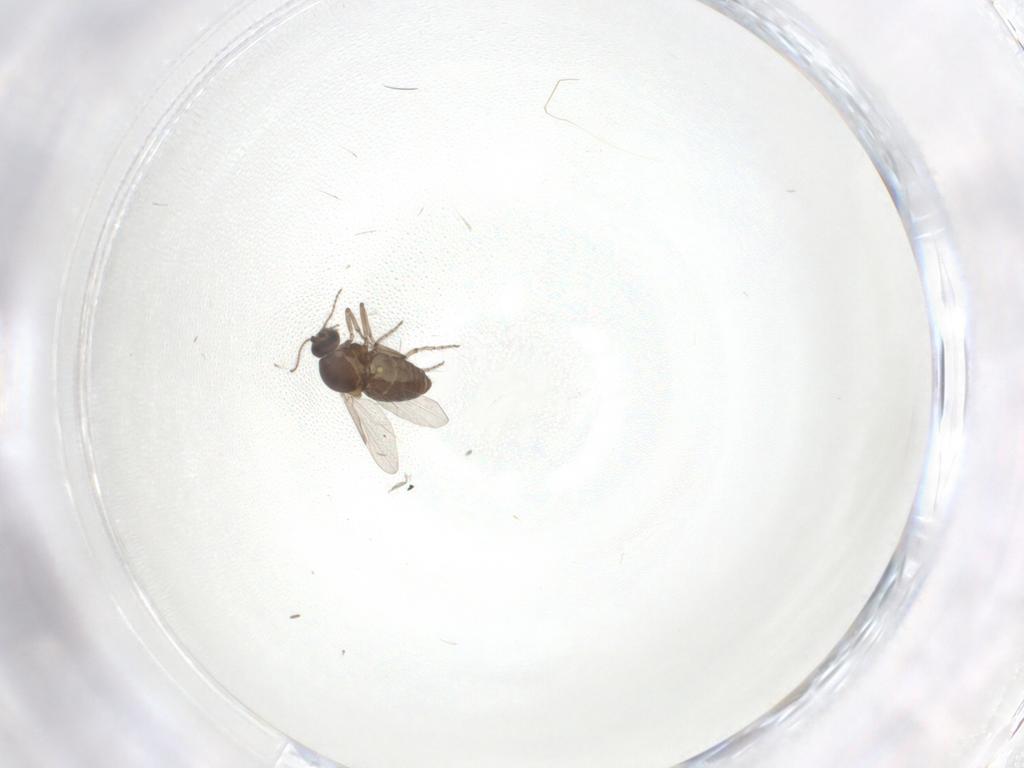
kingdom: Animalia
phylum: Arthropoda
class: Insecta
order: Diptera
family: Ceratopogonidae
